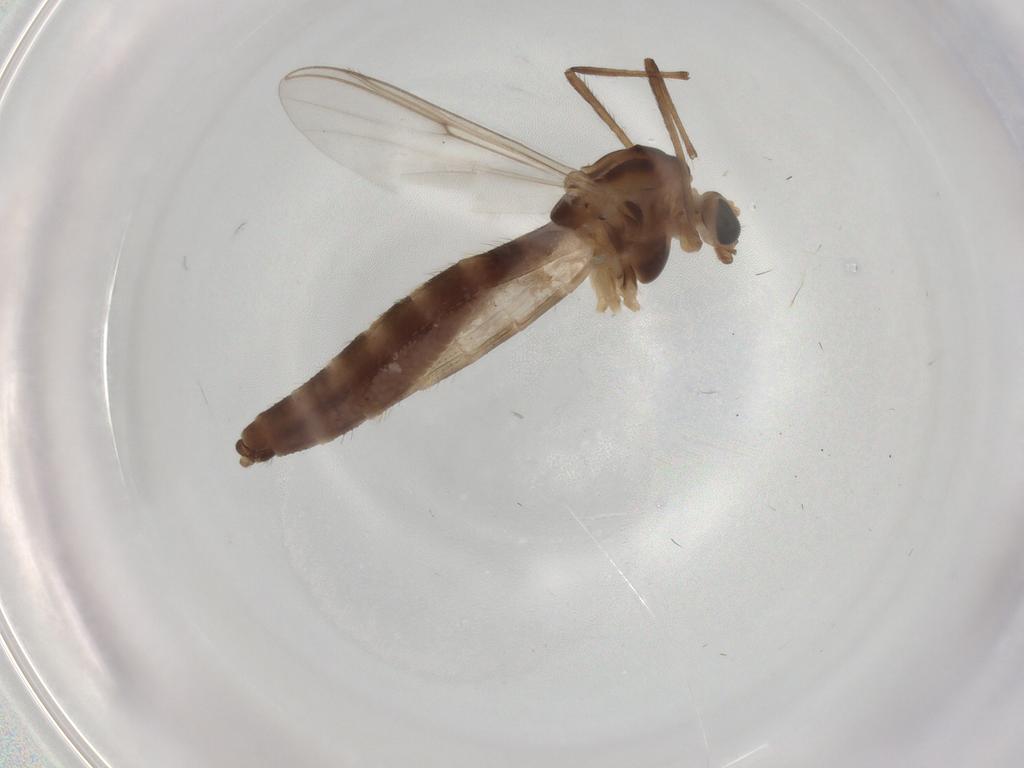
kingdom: Animalia
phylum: Arthropoda
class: Insecta
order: Diptera
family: Chironomidae
